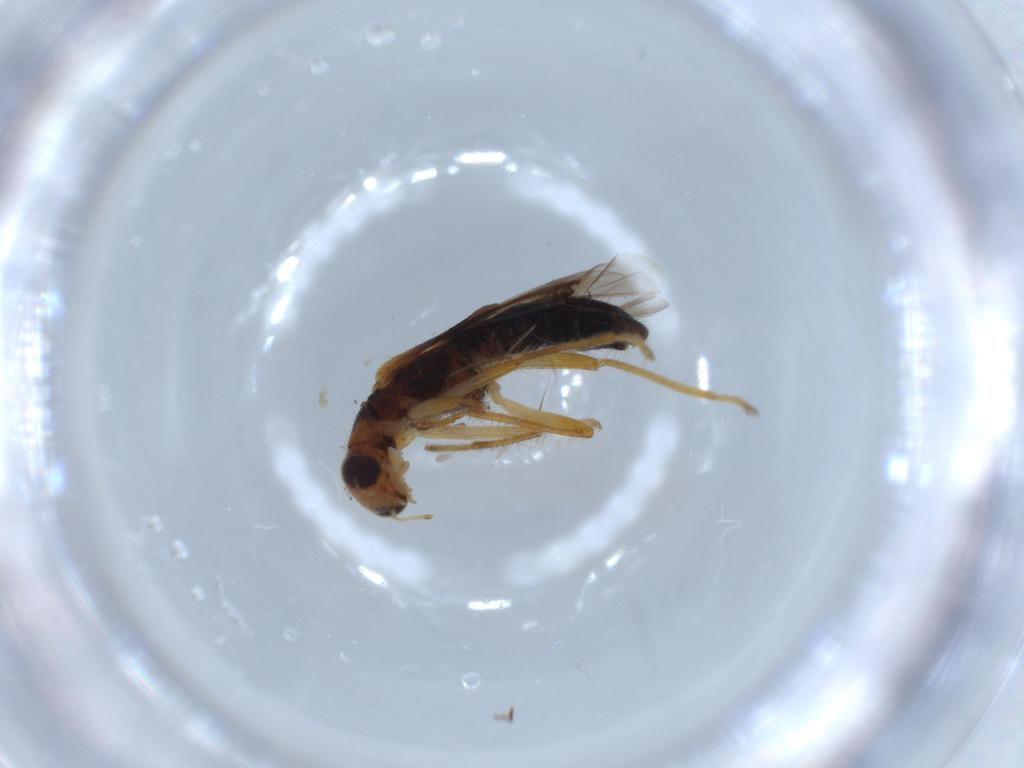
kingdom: Animalia
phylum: Arthropoda
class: Insecta
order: Coleoptera
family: Cleridae
